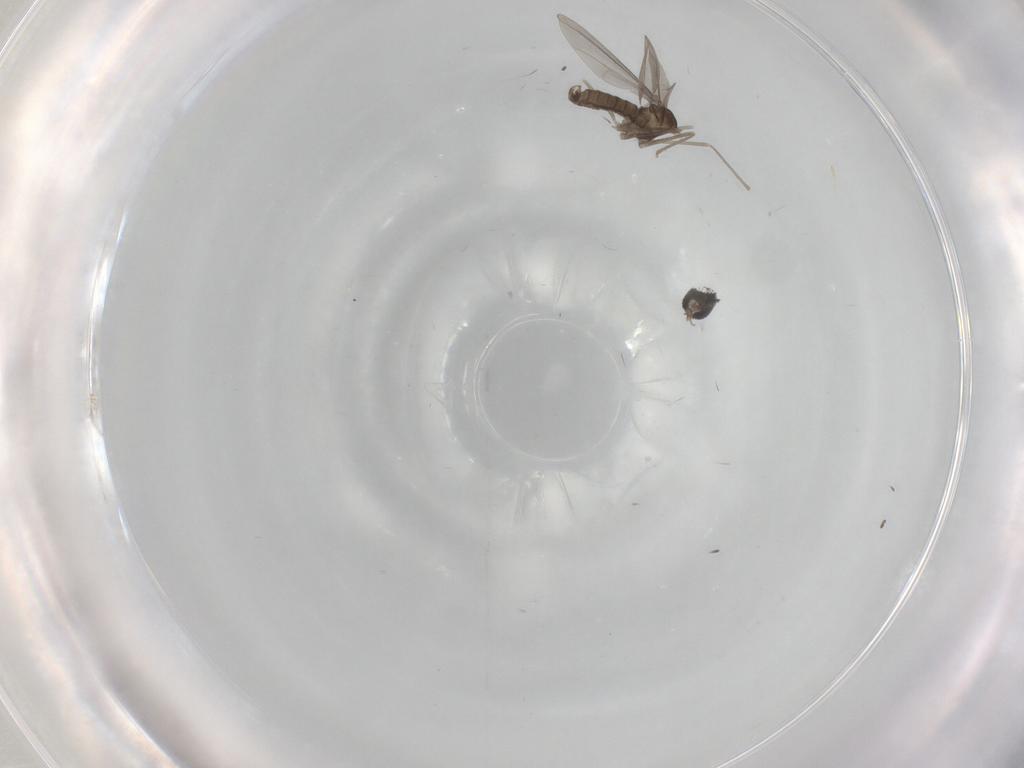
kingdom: Animalia
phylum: Arthropoda
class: Insecta
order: Diptera
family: Cecidomyiidae
